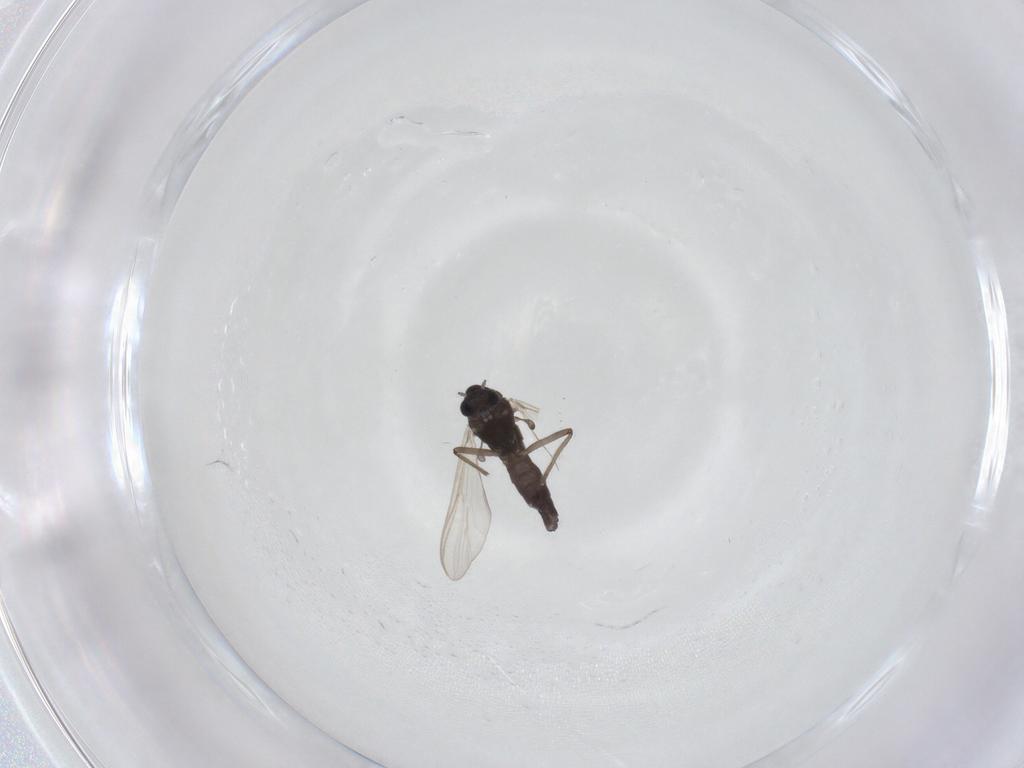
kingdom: Animalia
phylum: Arthropoda
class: Insecta
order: Diptera
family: Chironomidae
